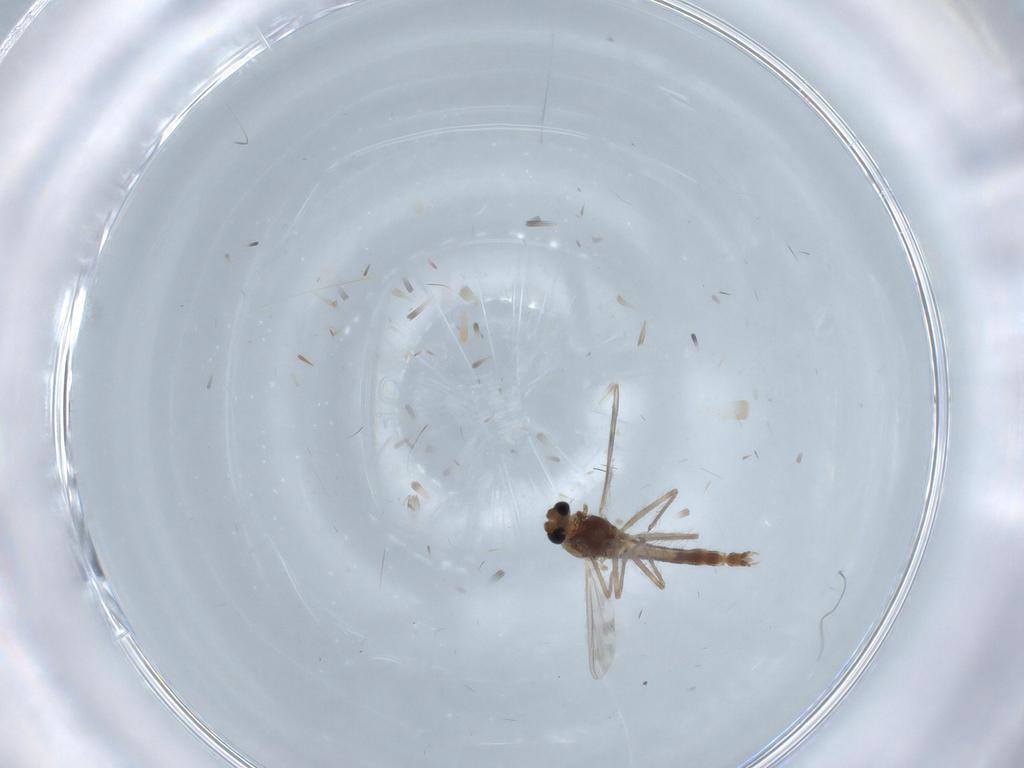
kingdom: Animalia
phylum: Arthropoda
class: Insecta
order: Diptera
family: Chironomidae
